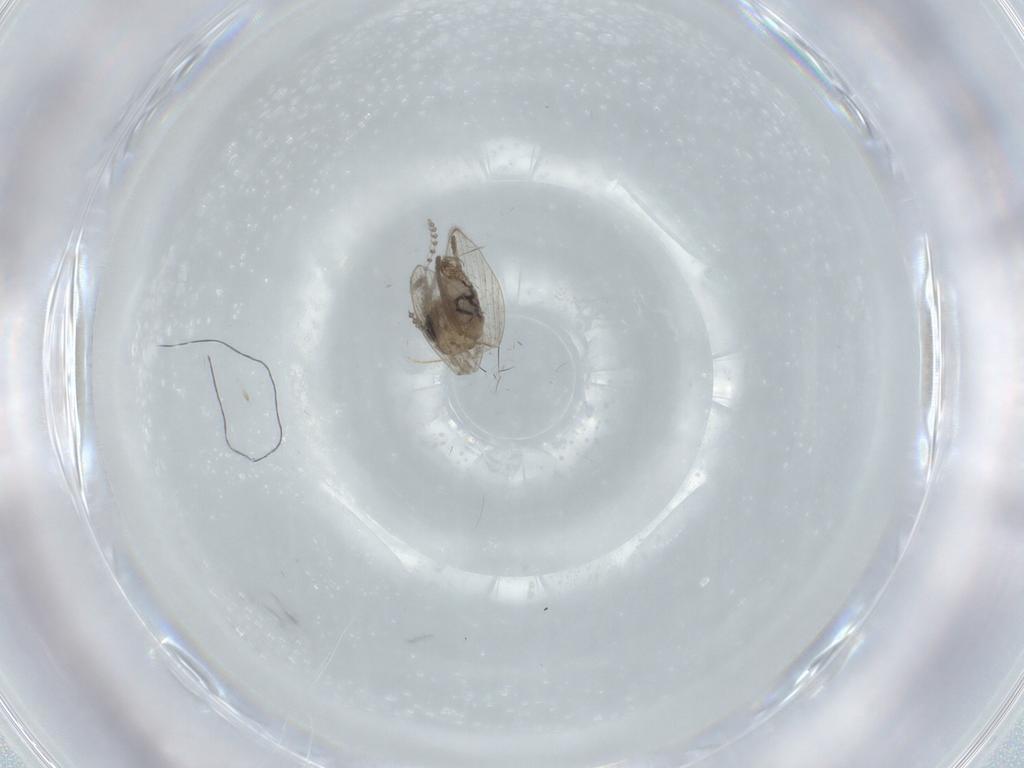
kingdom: Animalia
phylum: Arthropoda
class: Insecta
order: Diptera
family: Psychodidae
